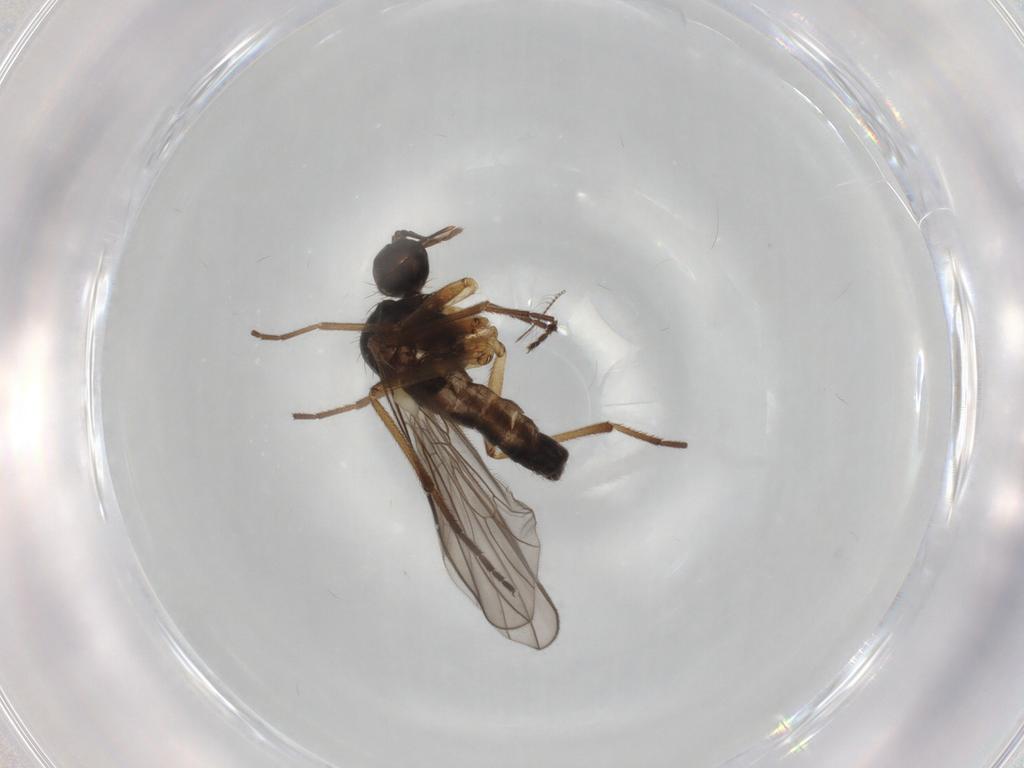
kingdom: Animalia
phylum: Arthropoda
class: Insecta
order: Diptera
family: Empididae
